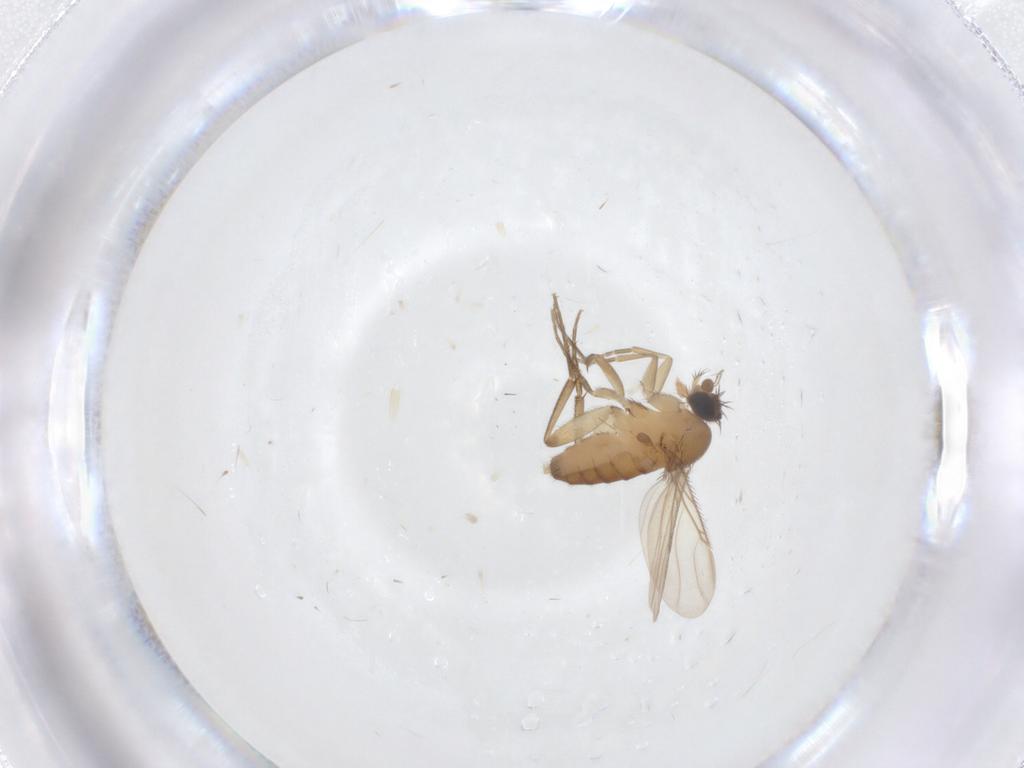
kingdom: Animalia
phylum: Arthropoda
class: Insecta
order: Diptera
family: Phoridae
